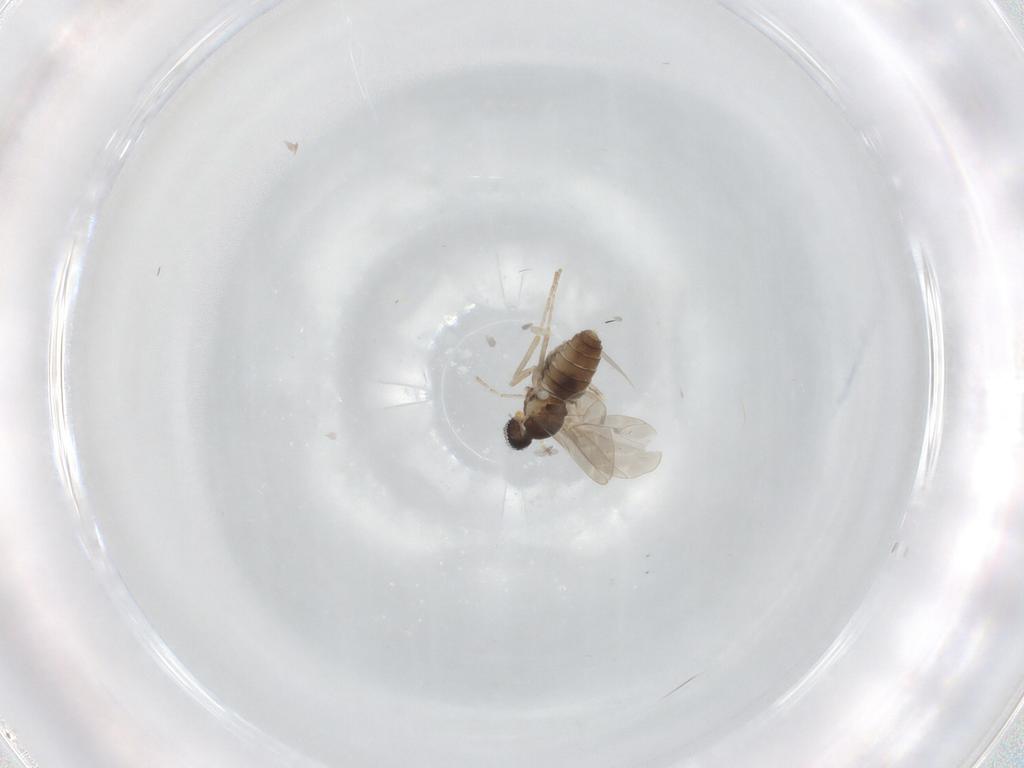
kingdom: Animalia
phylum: Arthropoda
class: Insecta
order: Diptera
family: Cecidomyiidae
